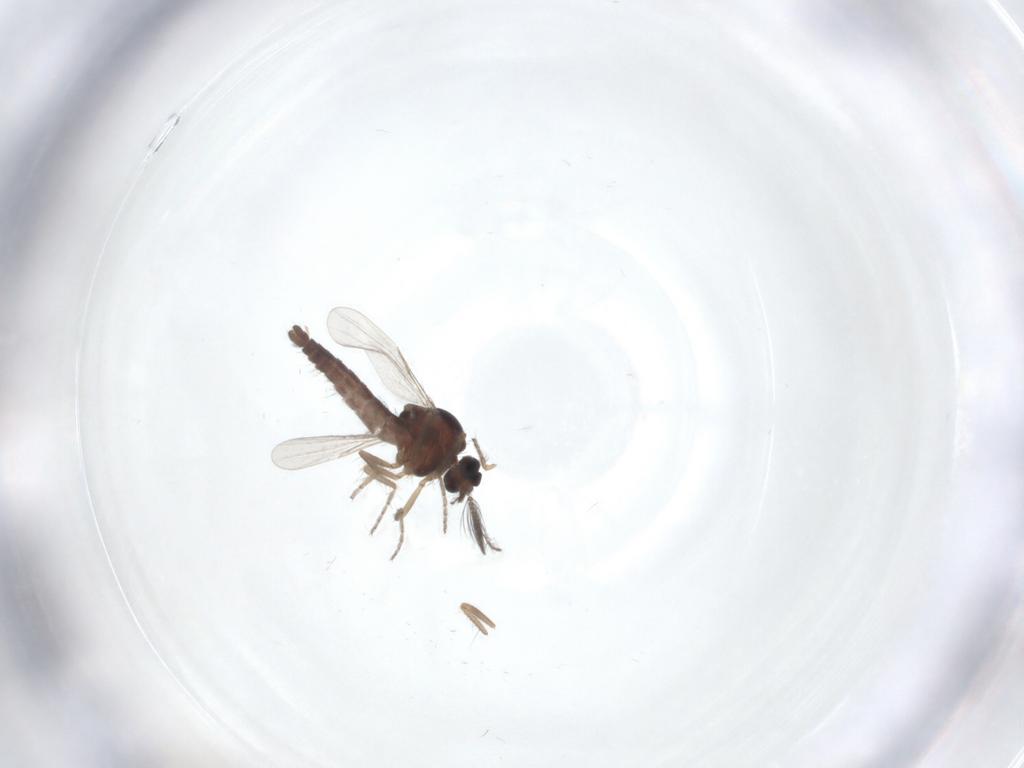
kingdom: Animalia
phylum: Arthropoda
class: Insecta
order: Diptera
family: Ceratopogonidae
